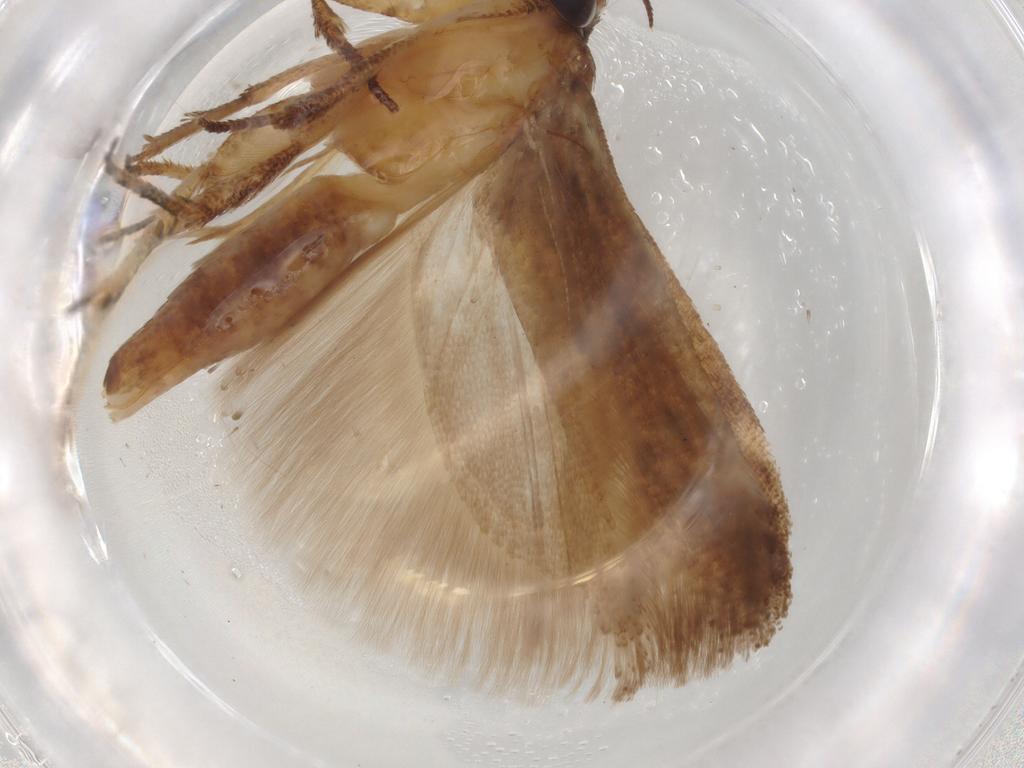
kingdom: Animalia
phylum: Arthropoda
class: Insecta
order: Lepidoptera
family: Gelechiidae
